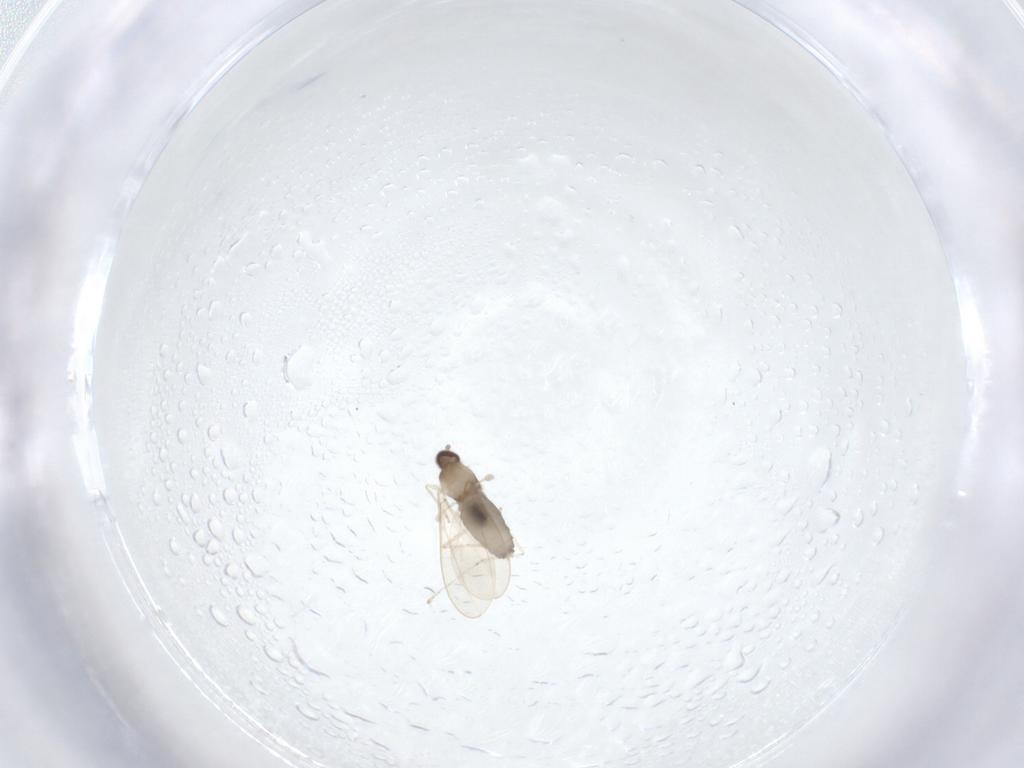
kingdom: Animalia
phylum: Arthropoda
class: Insecta
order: Diptera
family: Cecidomyiidae
